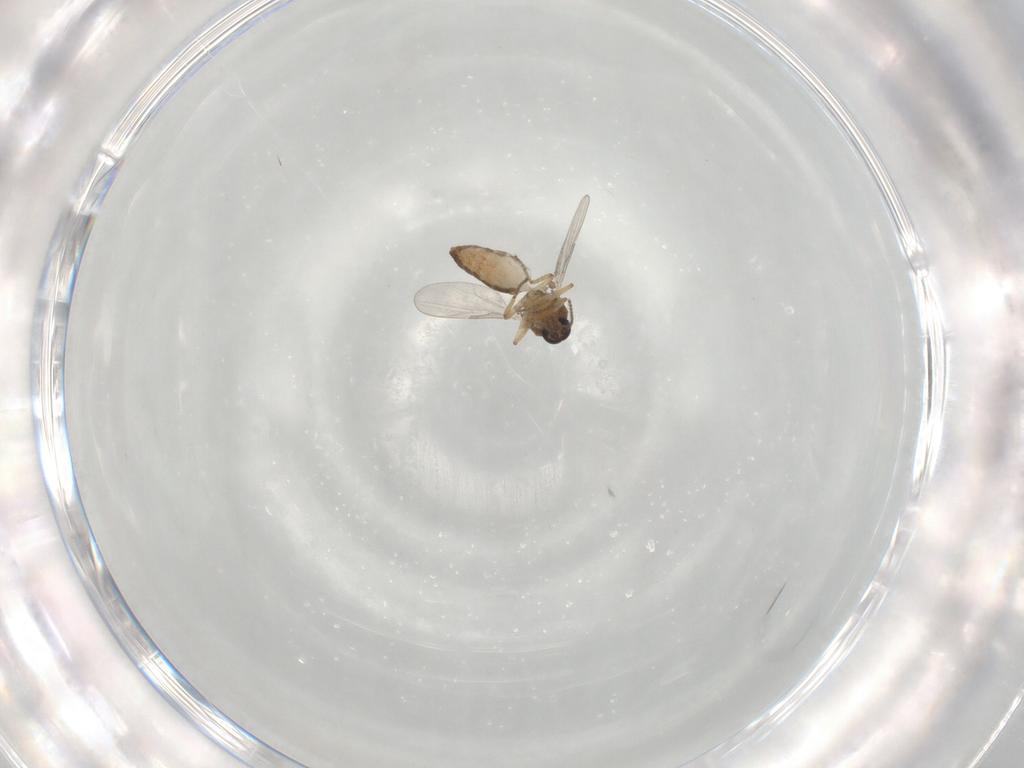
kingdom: Animalia
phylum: Arthropoda
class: Insecta
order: Diptera
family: Ceratopogonidae
